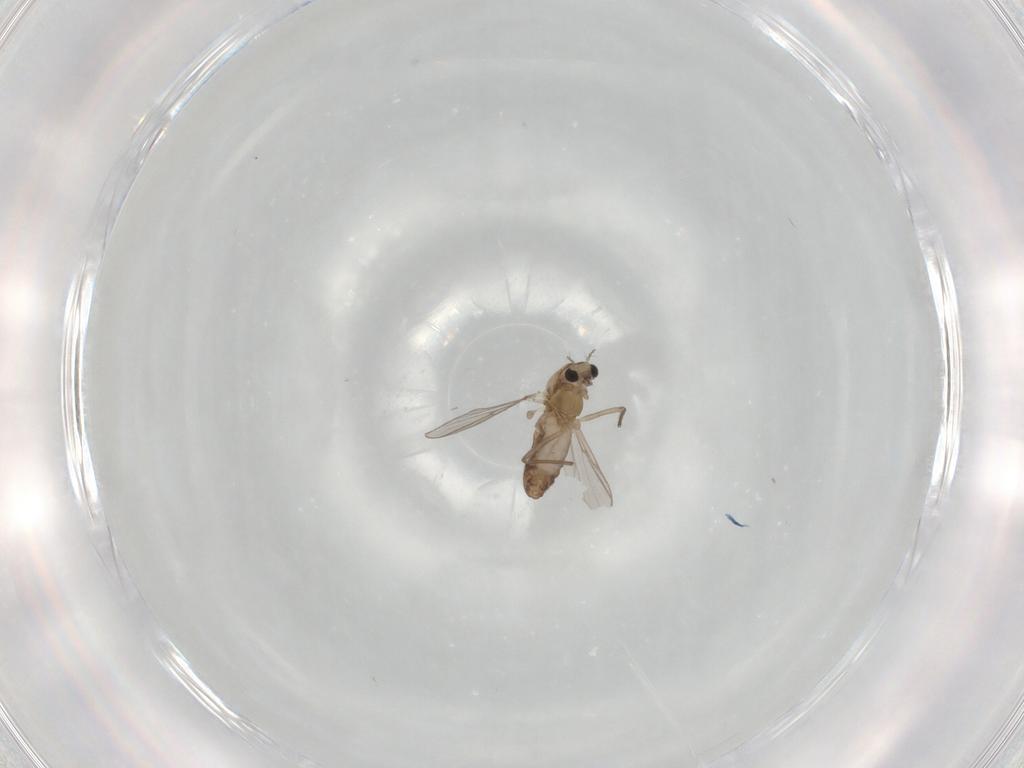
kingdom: Animalia
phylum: Arthropoda
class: Insecta
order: Diptera
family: Chironomidae
